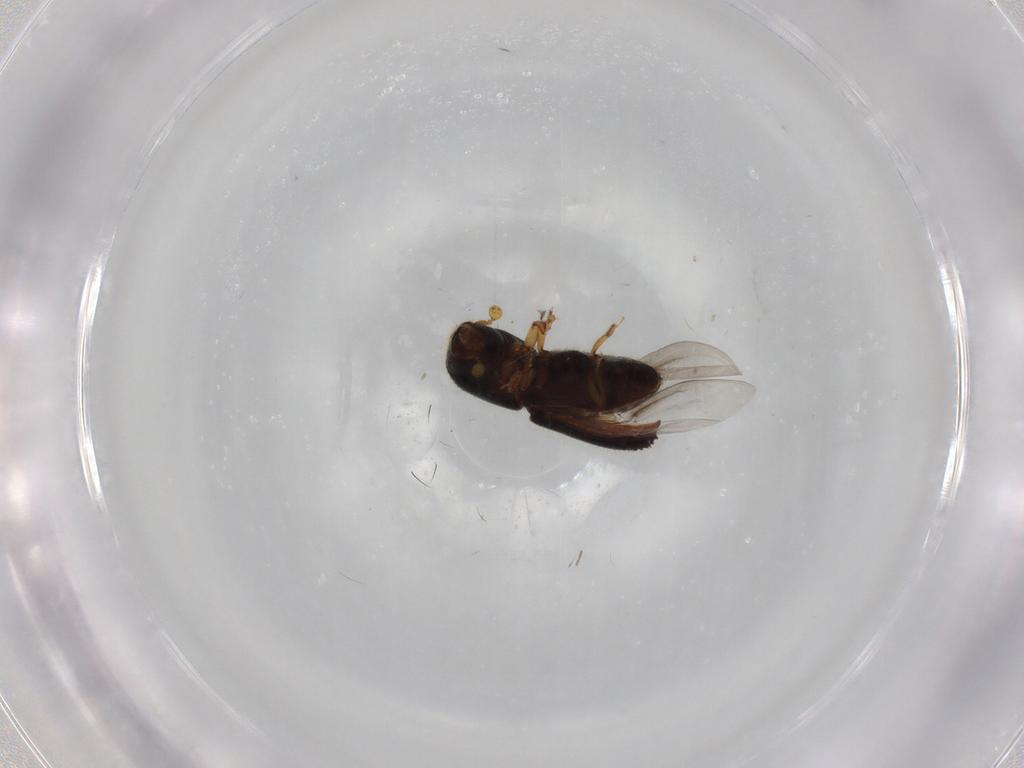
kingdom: Animalia
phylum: Arthropoda
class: Insecta
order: Coleoptera
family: Curculionidae
